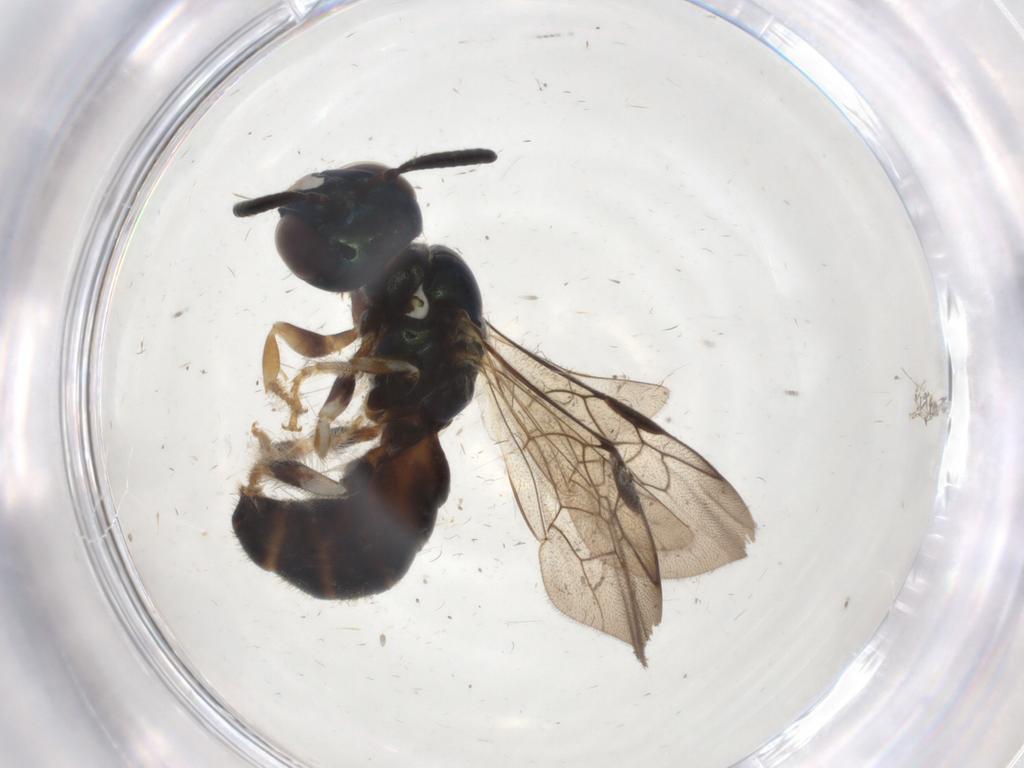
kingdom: Animalia
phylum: Arthropoda
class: Insecta
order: Hymenoptera
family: Apidae
